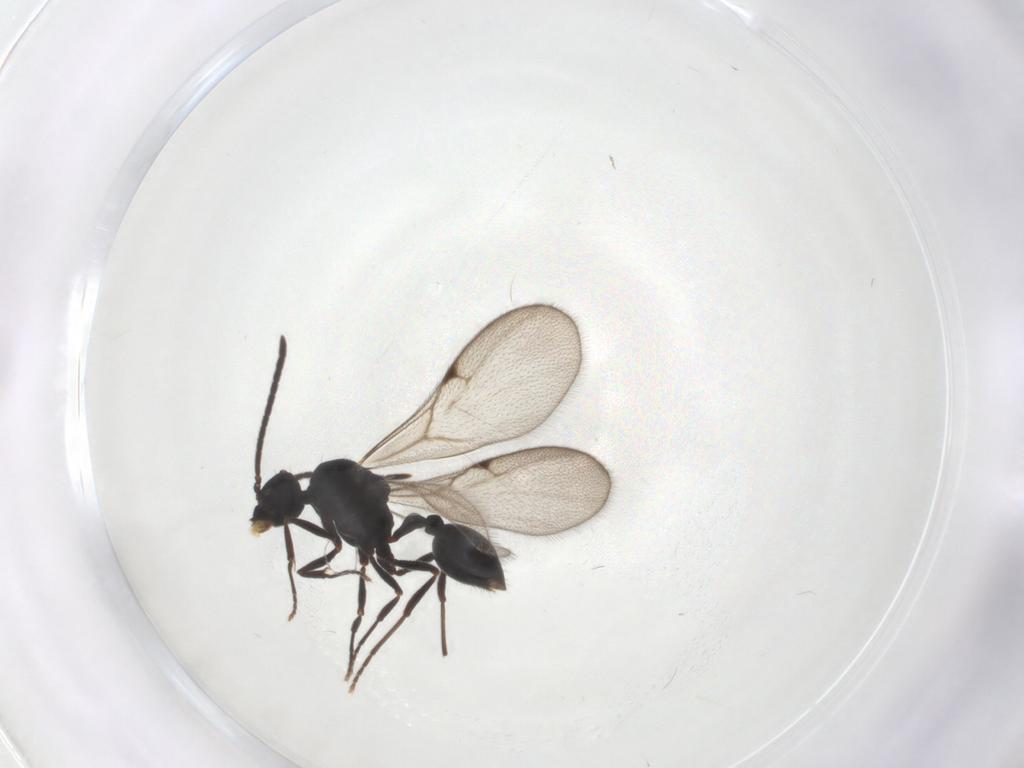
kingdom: Animalia
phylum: Arthropoda
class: Insecta
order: Hymenoptera
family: Formicidae
